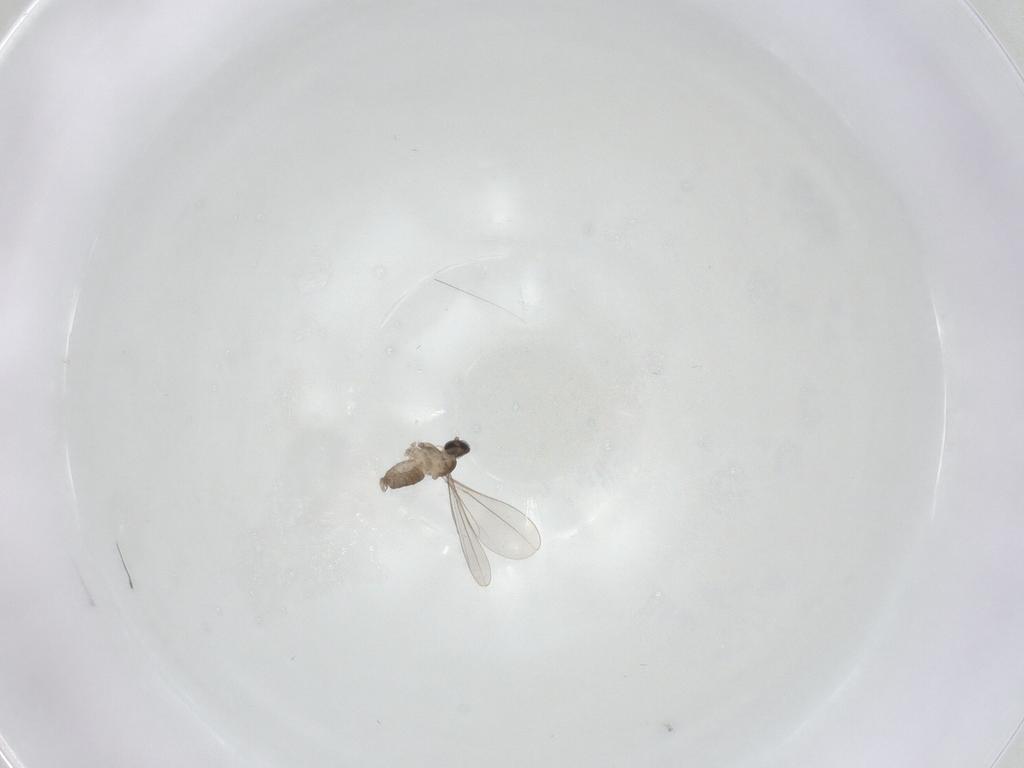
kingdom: Animalia
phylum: Arthropoda
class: Insecta
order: Diptera
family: Cecidomyiidae
